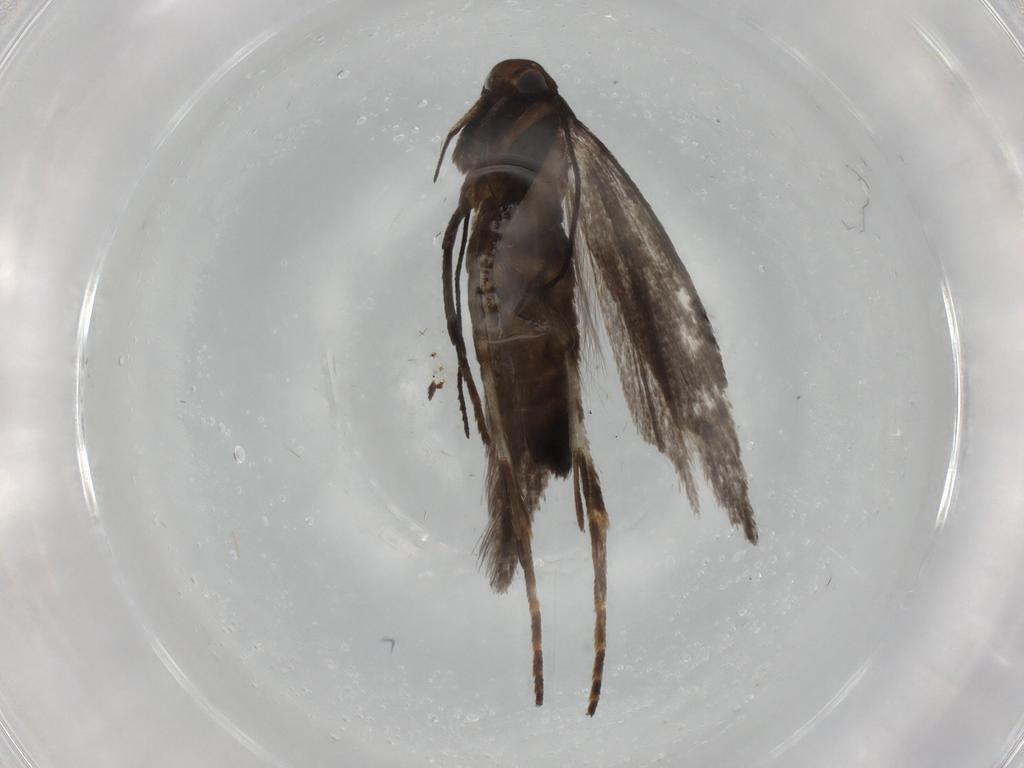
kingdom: Animalia
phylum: Arthropoda
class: Insecta
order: Lepidoptera
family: Gelechiidae
